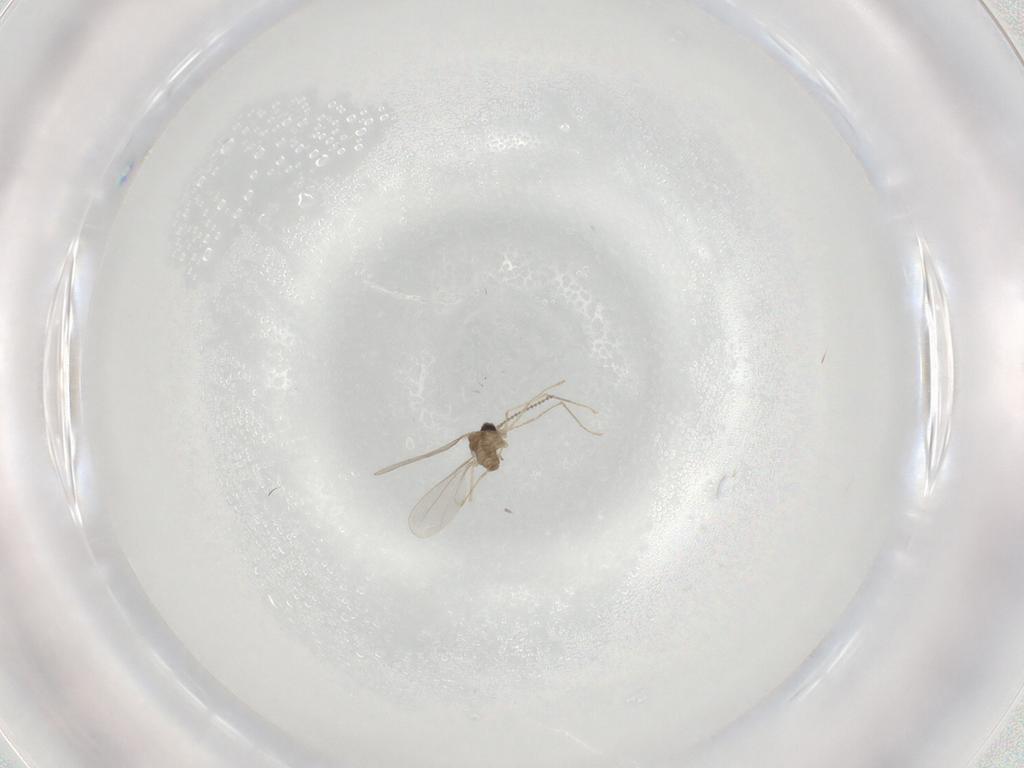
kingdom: Animalia
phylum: Arthropoda
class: Insecta
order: Diptera
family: Cecidomyiidae
